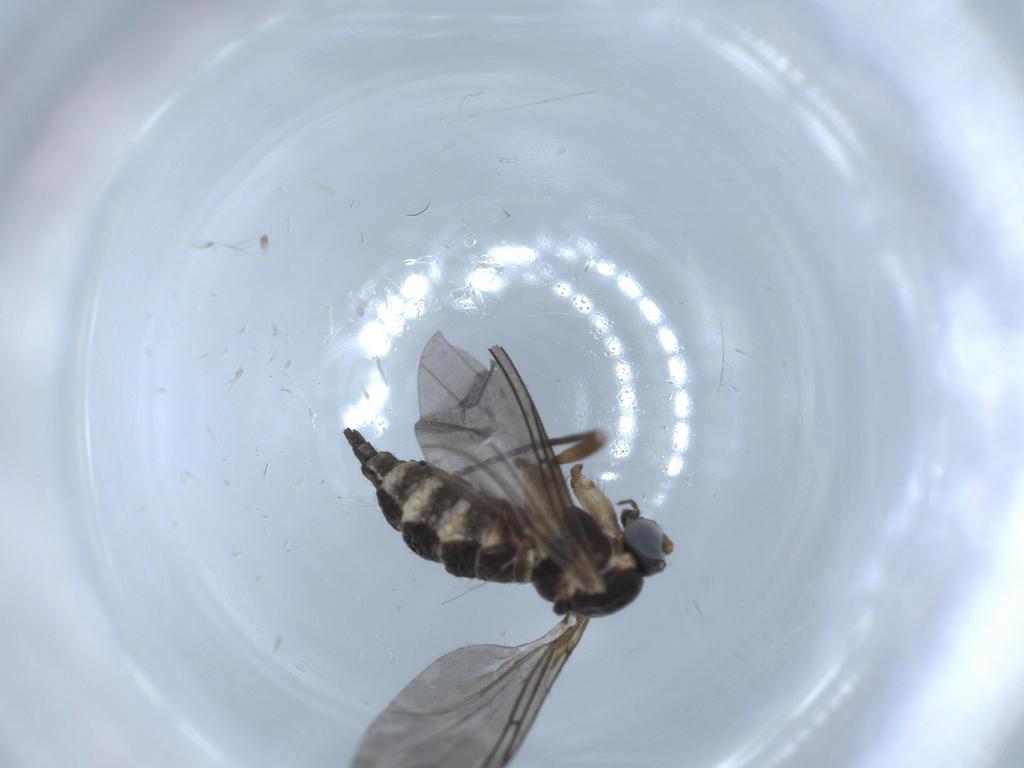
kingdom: Animalia
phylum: Arthropoda
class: Insecta
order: Diptera
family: Sciaridae
